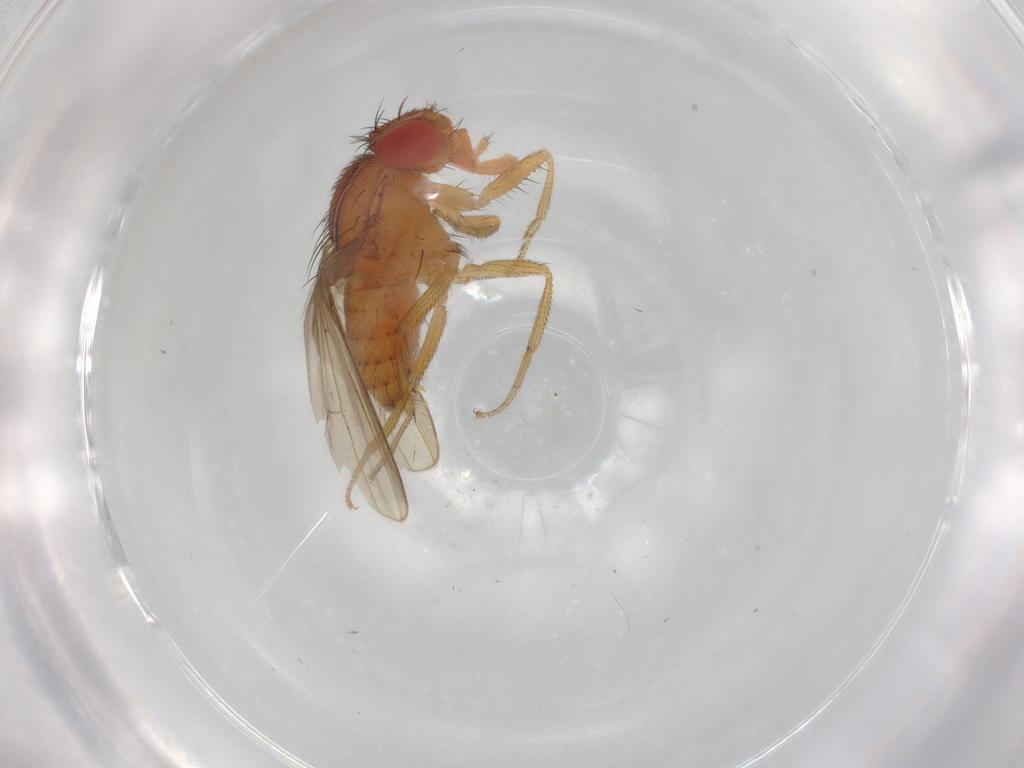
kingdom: Animalia
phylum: Arthropoda
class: Insecta
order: Diptera
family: Drosophilidae
